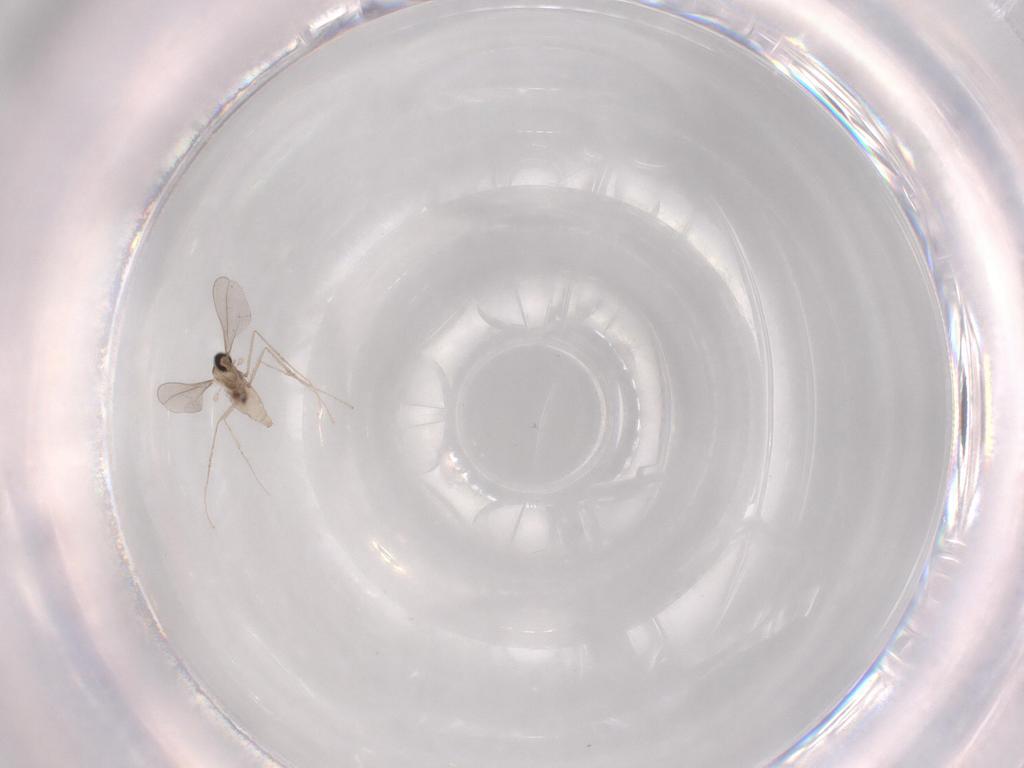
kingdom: Animalia
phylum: Arthropoda
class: Insecta
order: Diptera
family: Cecidomyiidae
